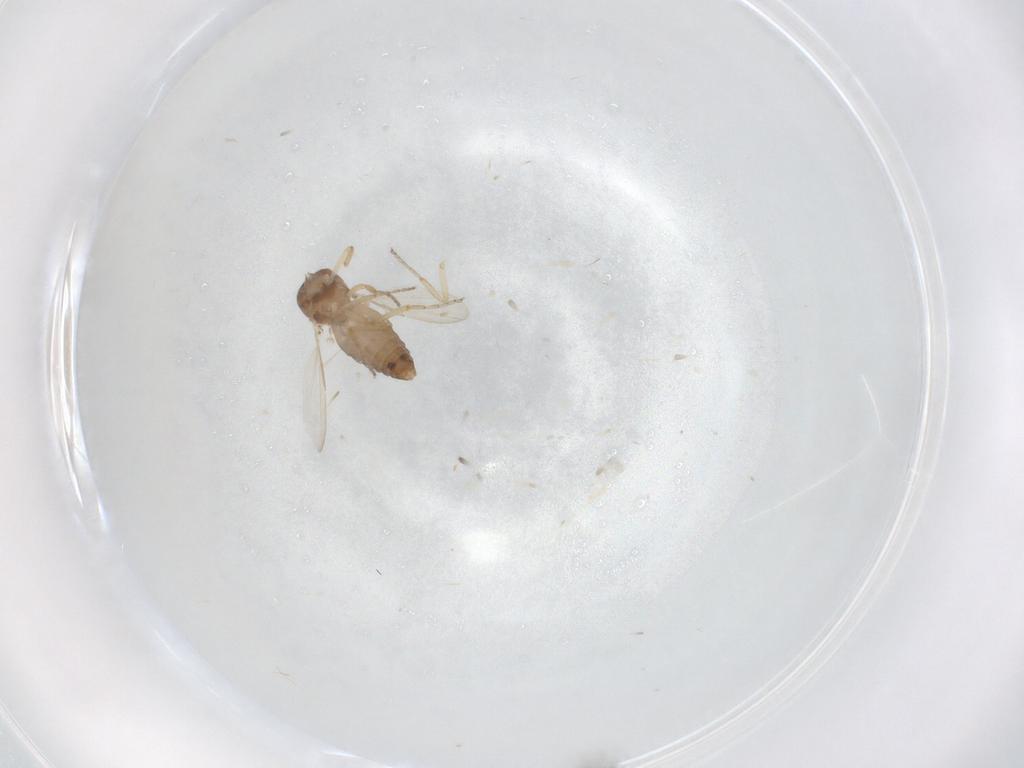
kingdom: Animalia
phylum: Arthropoda
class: Insecta
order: Diptera
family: Ceratopogonidae
